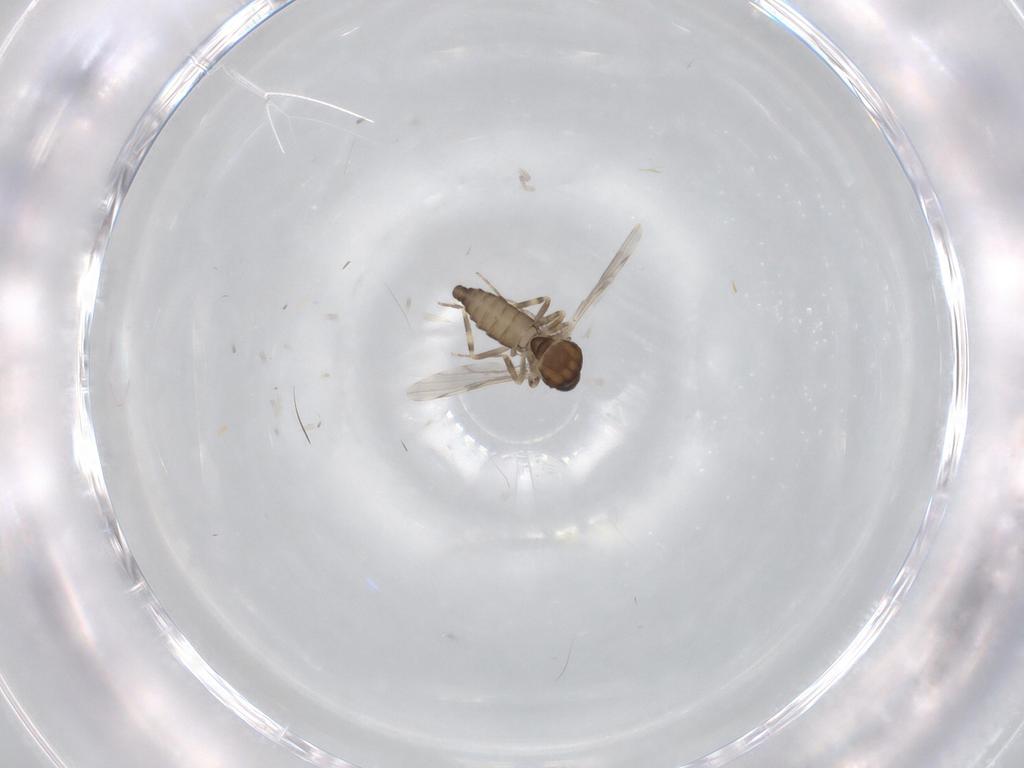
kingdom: Animalia
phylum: Arthropoda
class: Insecta
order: Diptera
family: Ceratopogonidae
